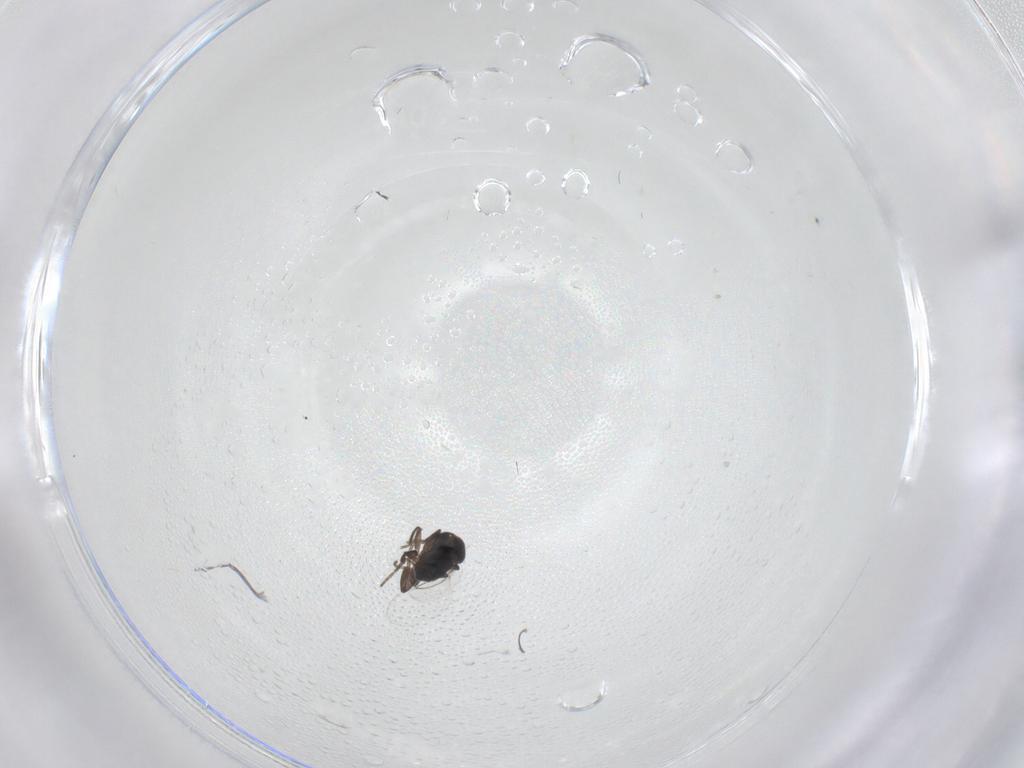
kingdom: Animalia
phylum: Arthropoda
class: Insecta
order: Diptera
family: Phoridae
